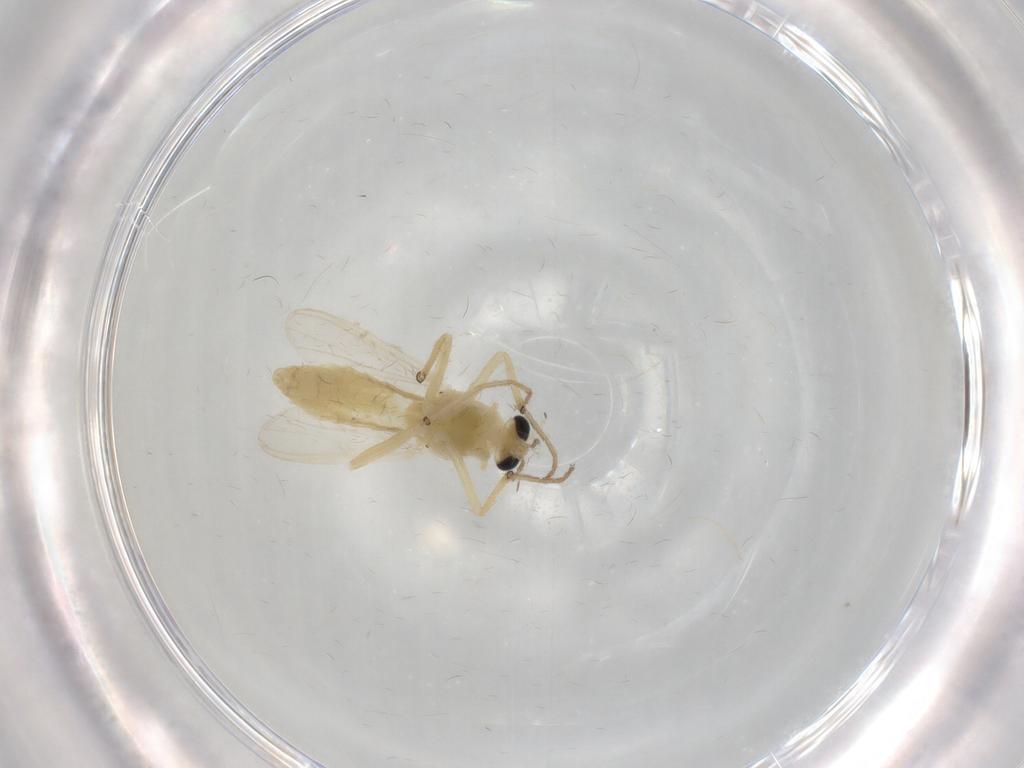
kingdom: Animalia
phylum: Arthropoda
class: Insecta
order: Diptera
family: Chironomidae
